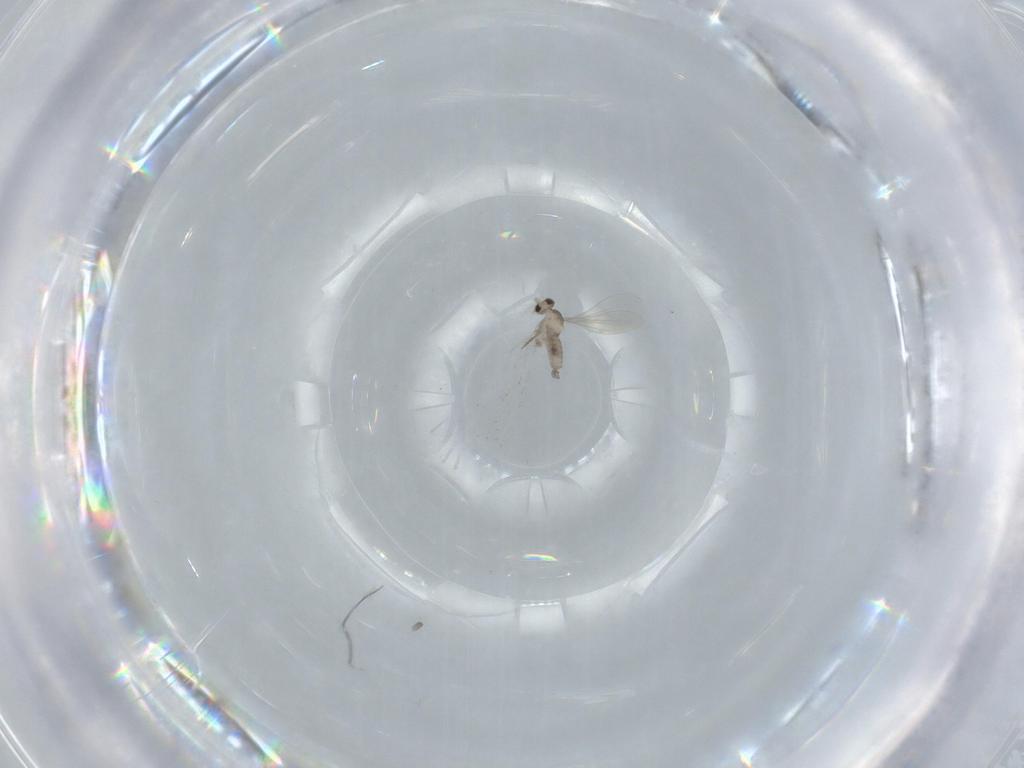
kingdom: Animalia
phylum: Arthropoda
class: Insecta
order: Diptera
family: Cecidomyiidae
